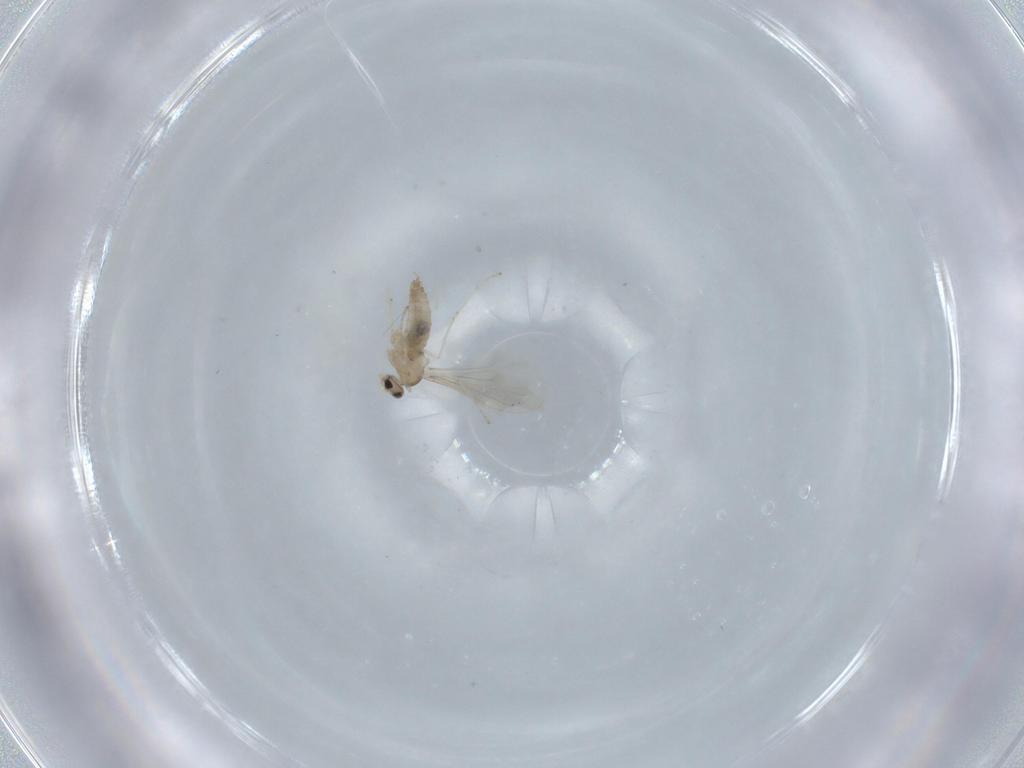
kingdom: Animalia
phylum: Arthropoda
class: Insecta
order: Diptera
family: Cecidomyiidae
